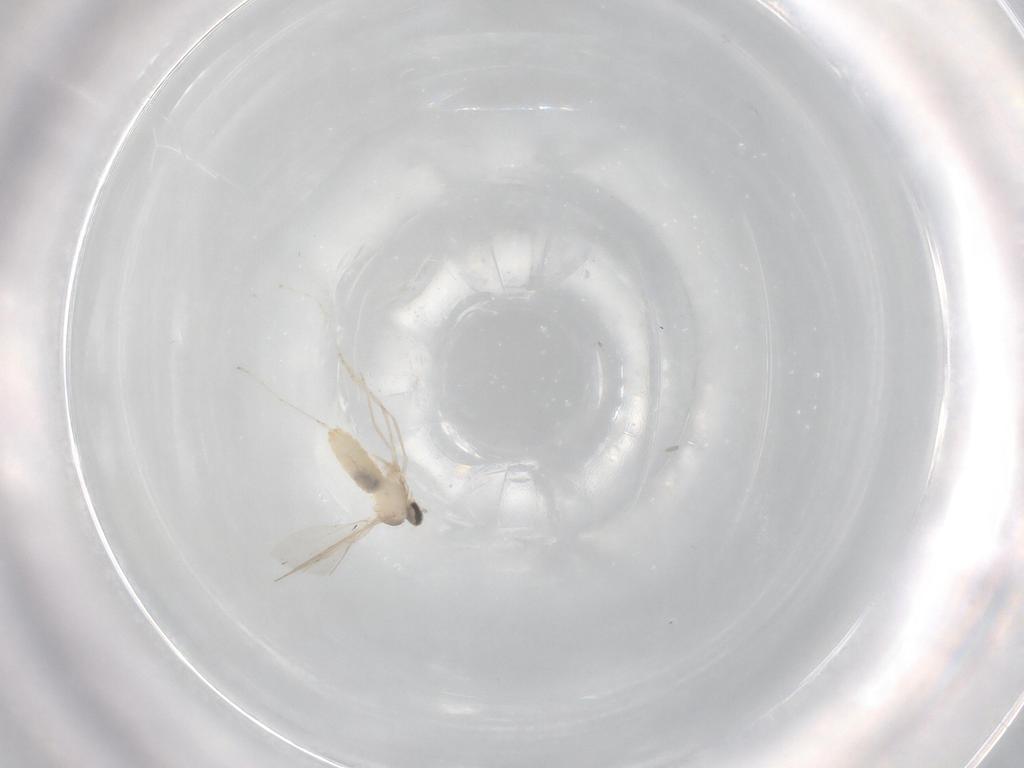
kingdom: Animalia
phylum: Arthropoda
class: Insecta
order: Diptera
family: Cecidomyiidae
